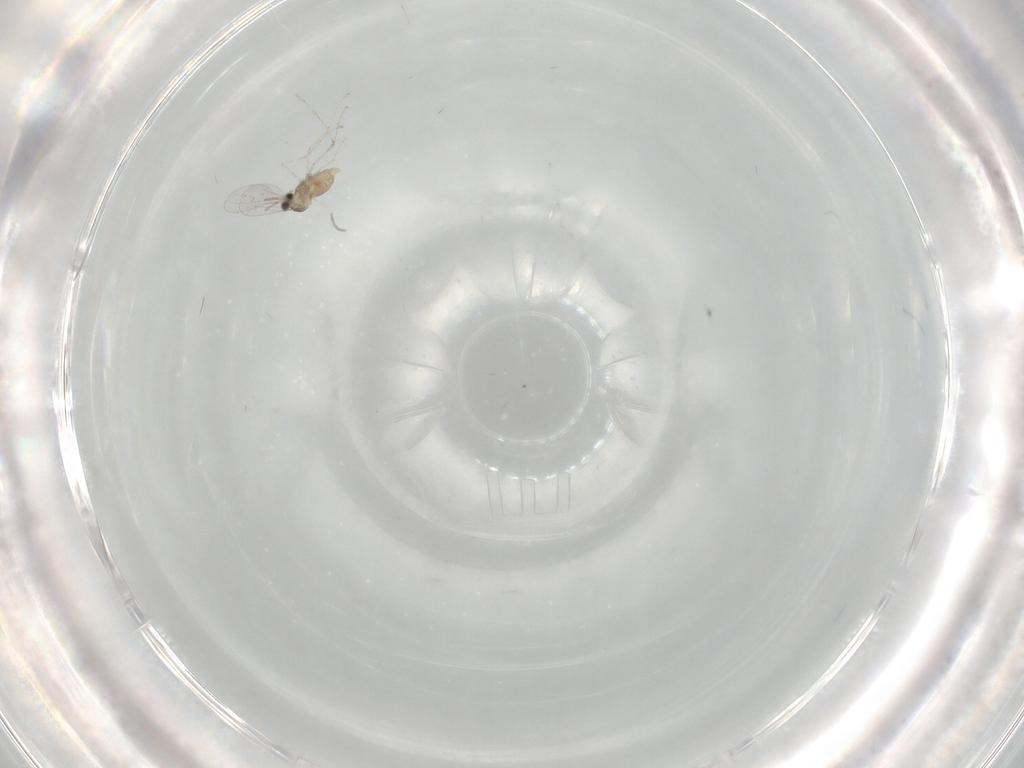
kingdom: Animalia
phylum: Arthropoda
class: Insecta
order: Diptera
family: Cecidomyiidae
